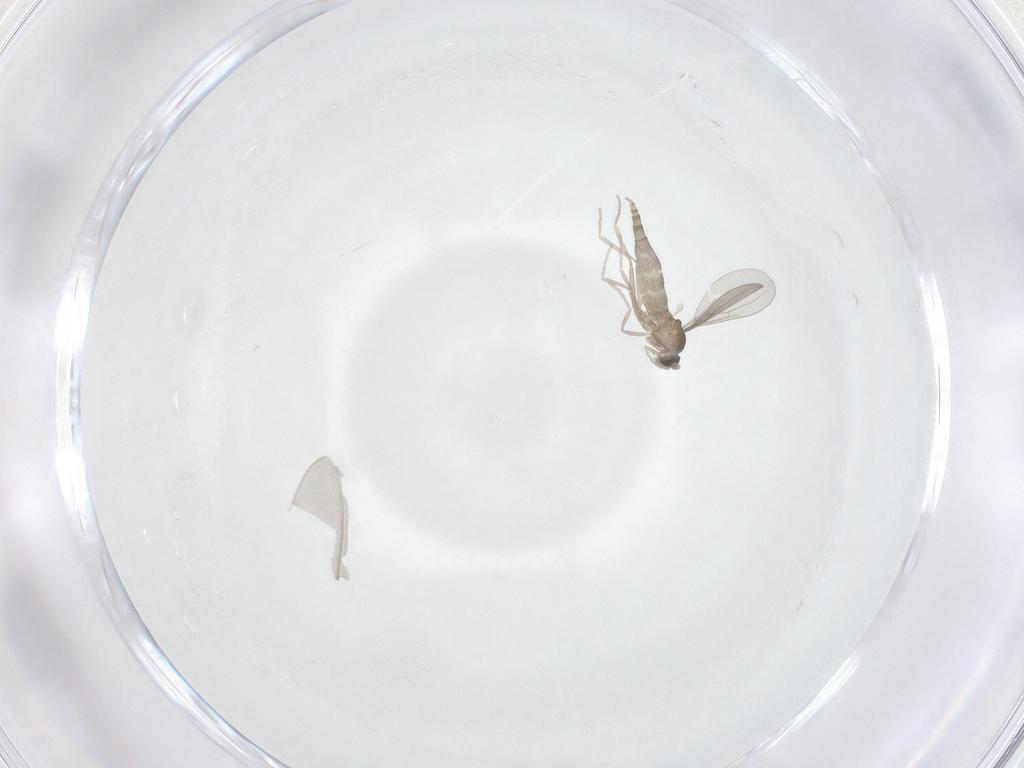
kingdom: Animalia
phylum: Arthropoda
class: Insecta
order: Diptera
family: Cecidomyiidae
